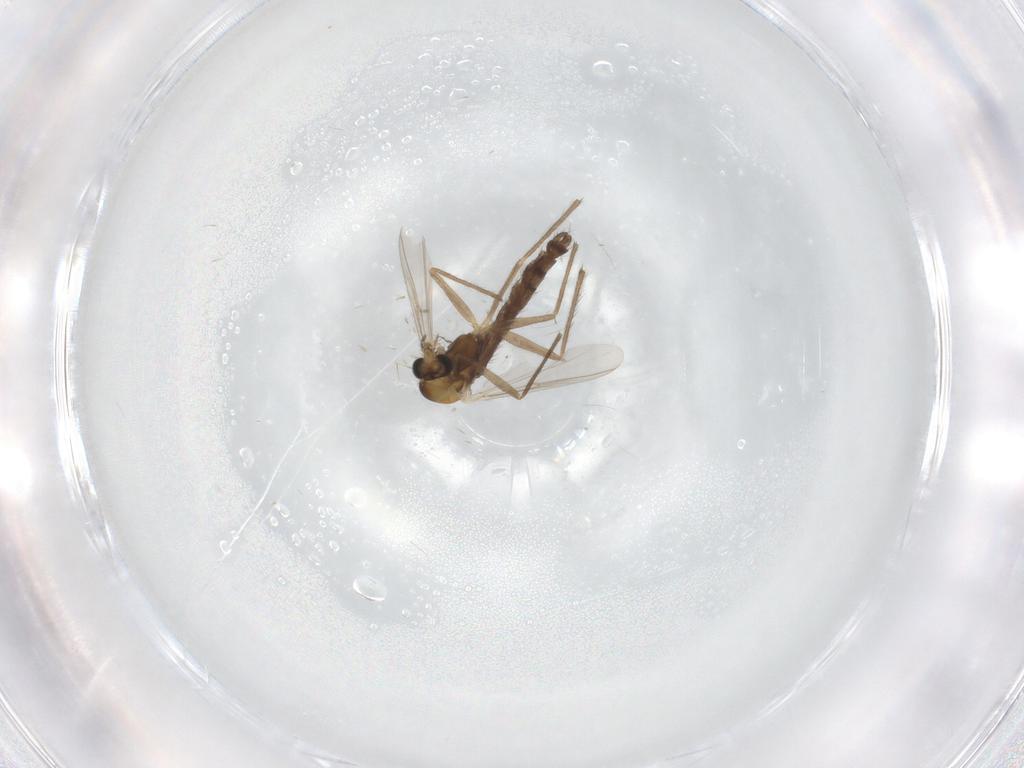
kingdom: Animalia
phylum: Arthropoda
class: Insecta
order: Diptera
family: Chironomidae
